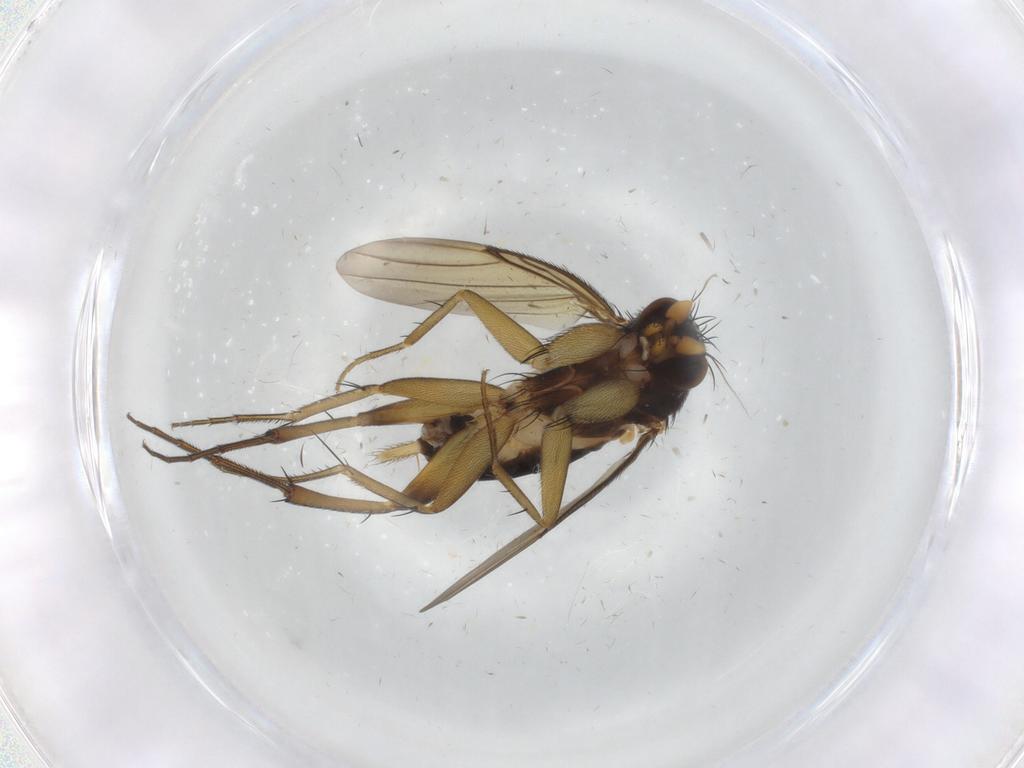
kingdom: Animalia
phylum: Arthropoda
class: Insecta
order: Diptera
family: Phoridae
